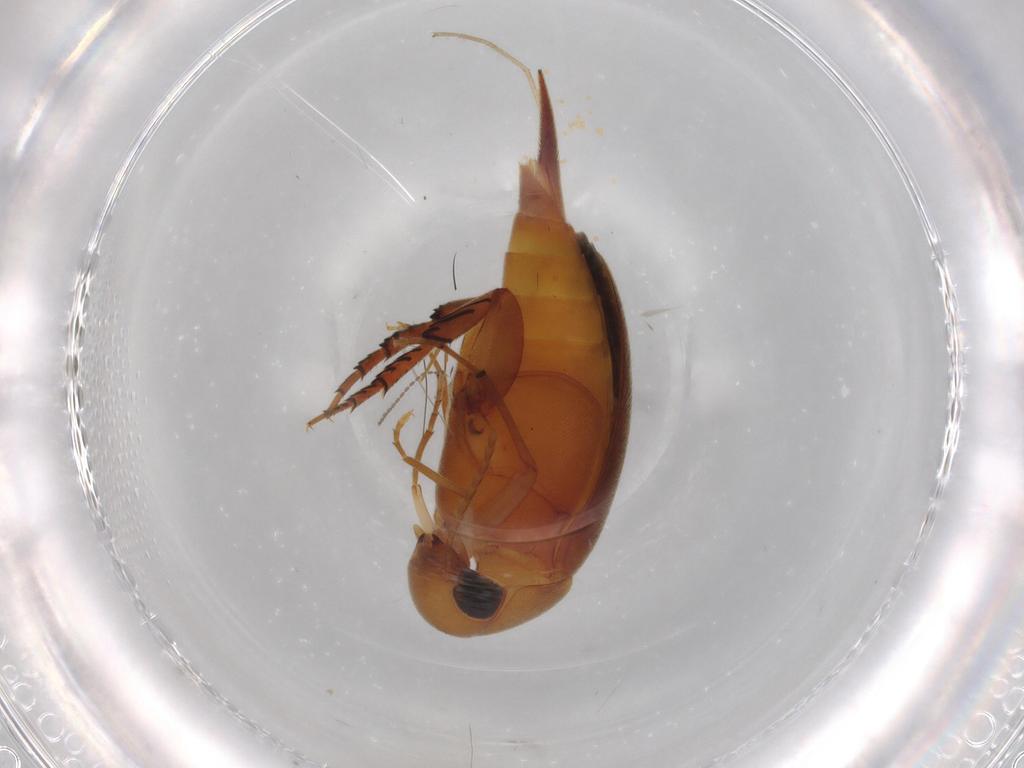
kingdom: Animalia
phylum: Arthropoda
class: Insecta
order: Coleoptera
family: Mordellidae
